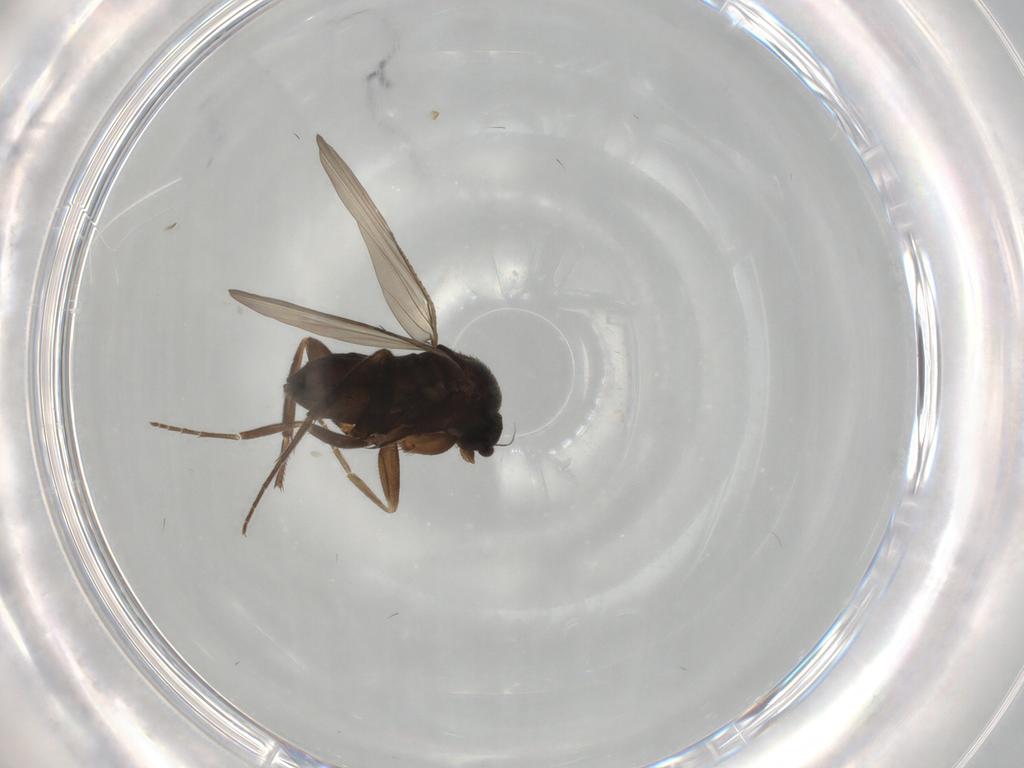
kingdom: Animalia
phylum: Arthropoda
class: Insecta
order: Diptera
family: Phoridae
